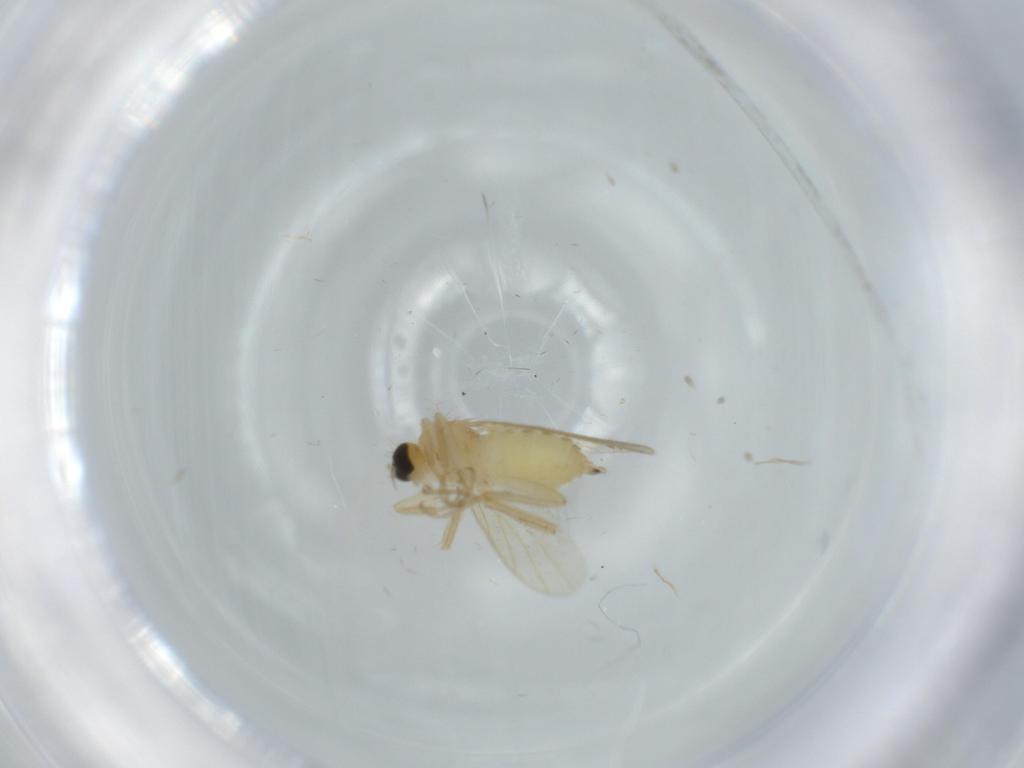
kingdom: Animalia
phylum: Arthropoda
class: Insecta
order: Diptera
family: Hybotidae
